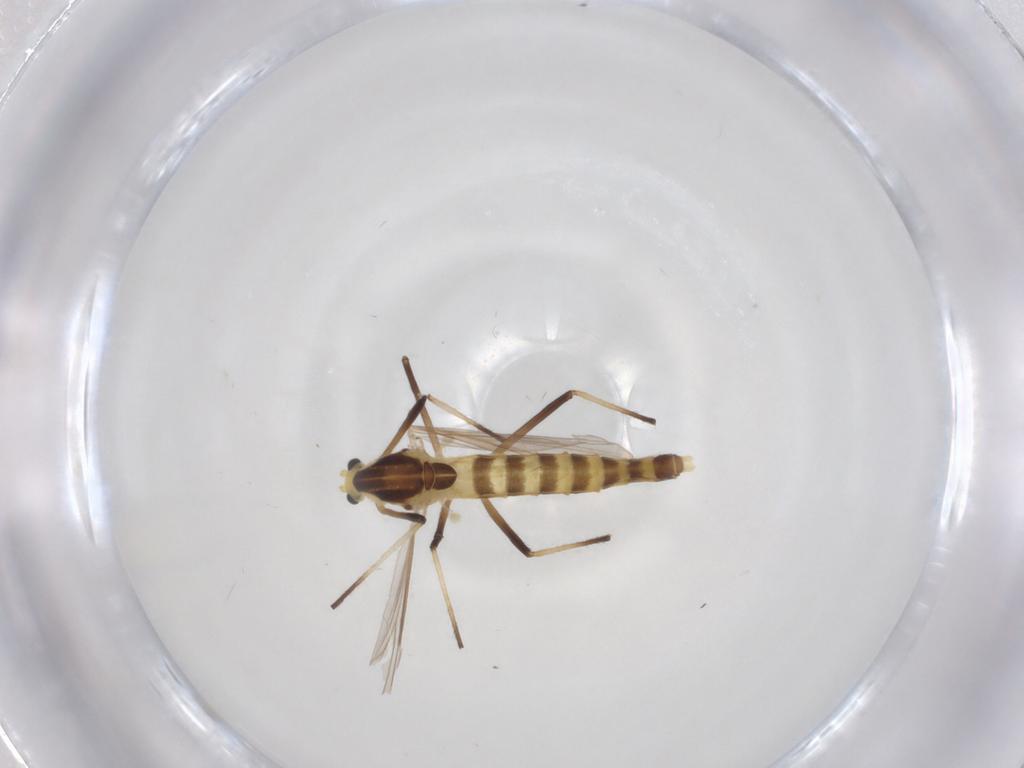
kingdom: Animalia
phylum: Arthropoda
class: Insecta
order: Diptera
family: Chironomidae
